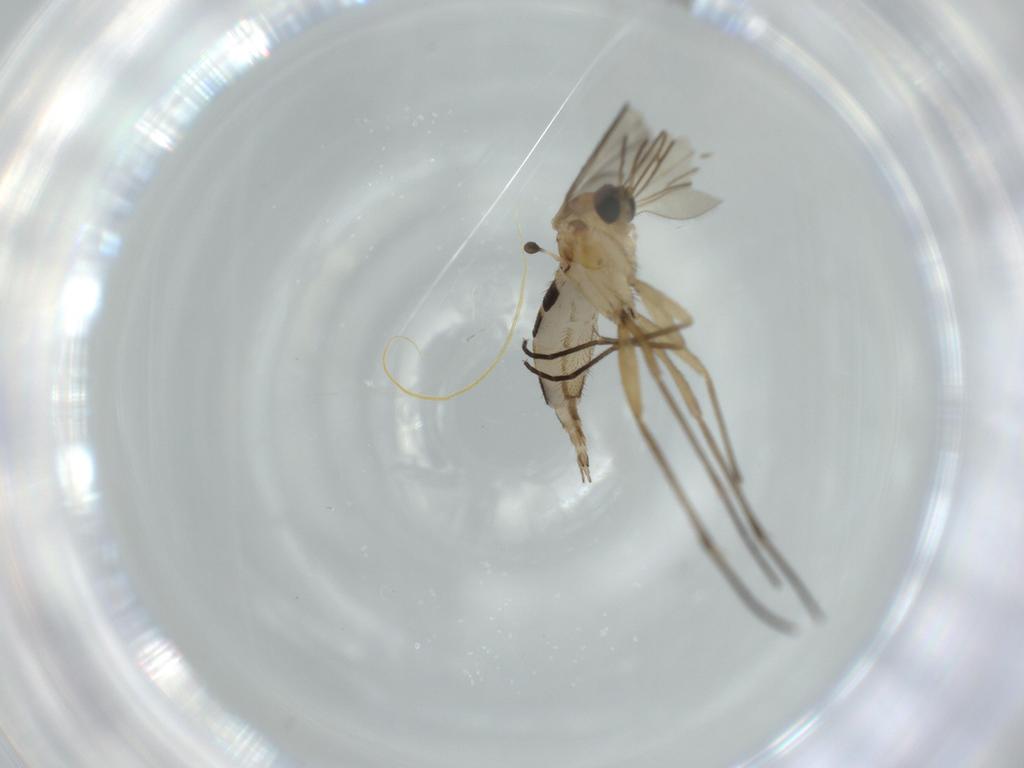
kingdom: Animalia
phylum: Arthropoda
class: Insecta
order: Diptera
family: Sciaridae
